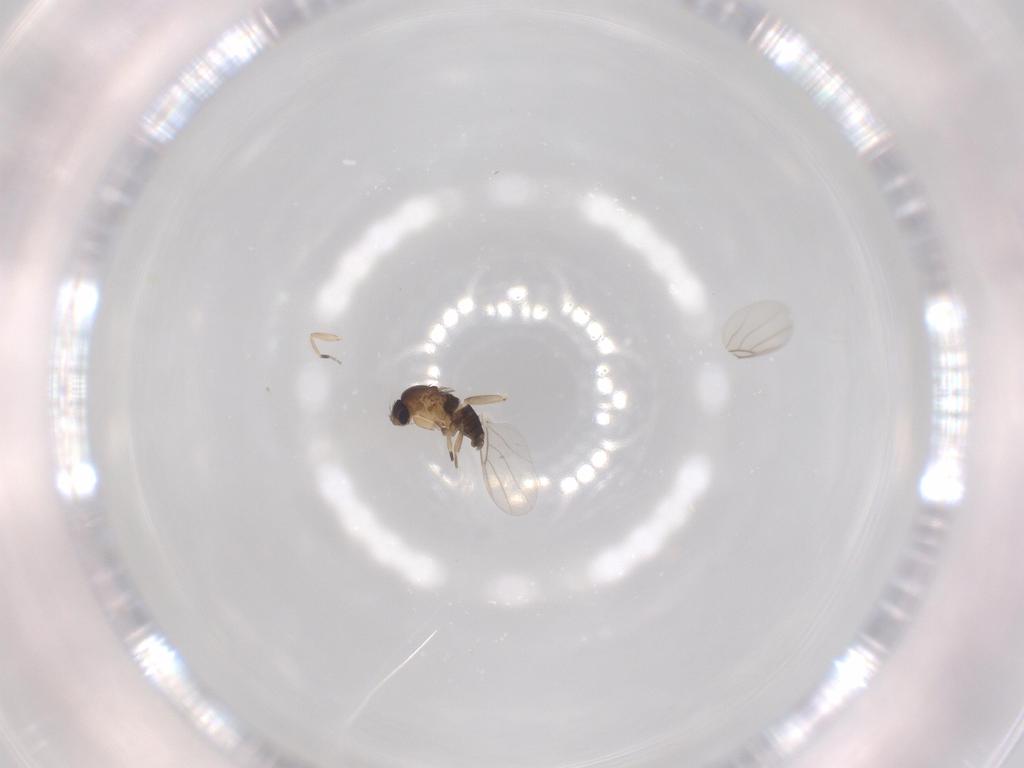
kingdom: Animalia
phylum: Arthropoda
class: Insecta
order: Diptera
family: Phoridae
